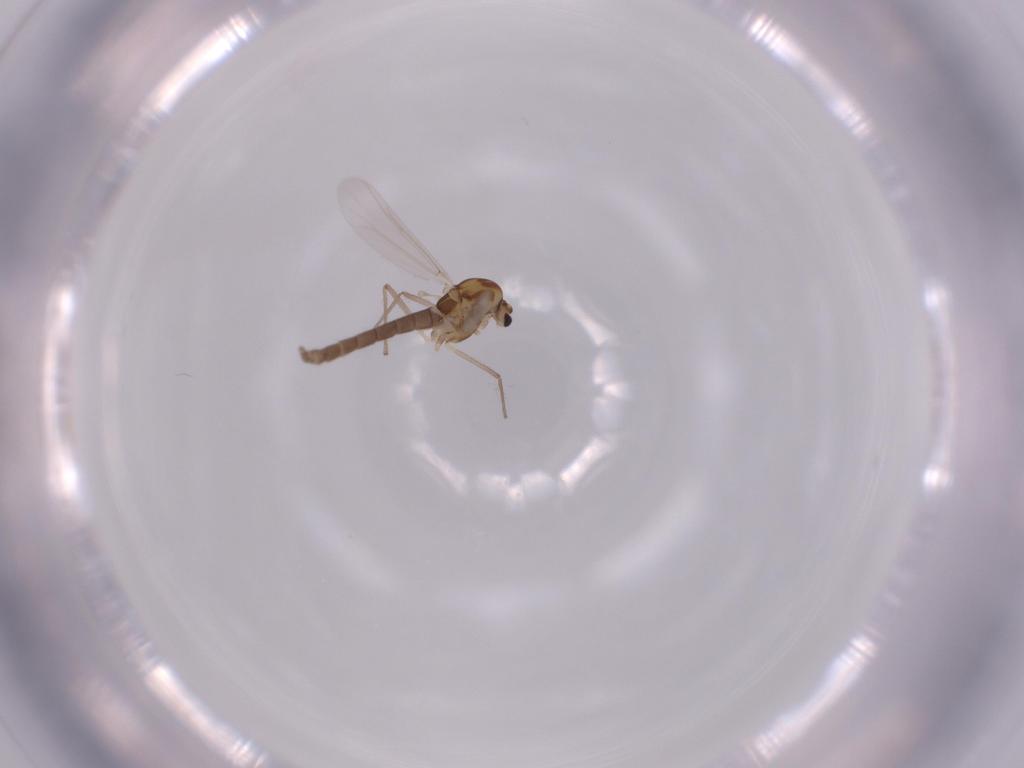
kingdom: Animalia
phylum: Arthropoda
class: Insecta
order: Diptera
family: Chironomidae
